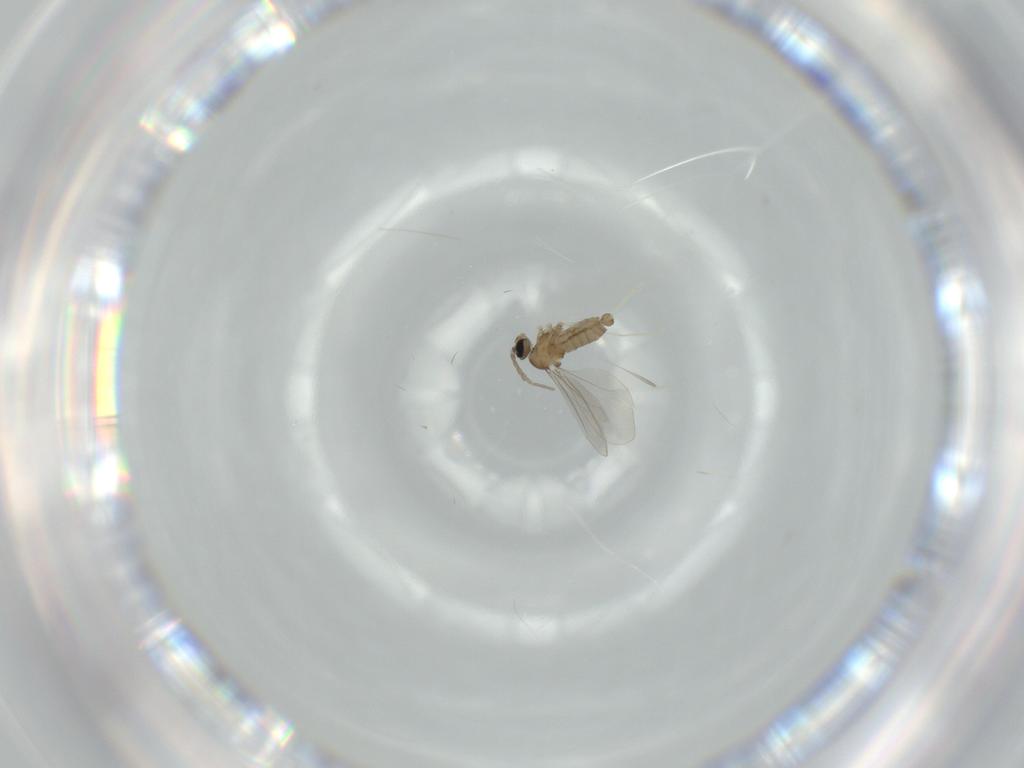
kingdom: Animalia
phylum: Arthropoda
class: Insecta
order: Diptera
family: Cecidomyiidae
